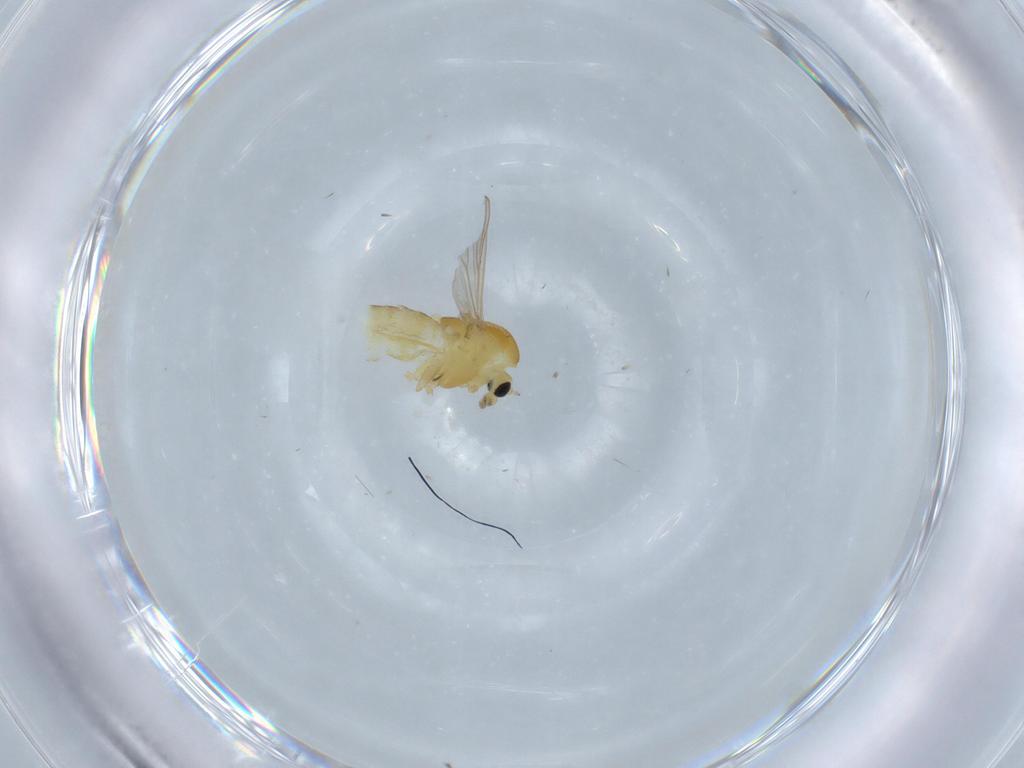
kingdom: Animalia
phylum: Arthropoda
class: Insecta
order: Diptera
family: Chironomidae
